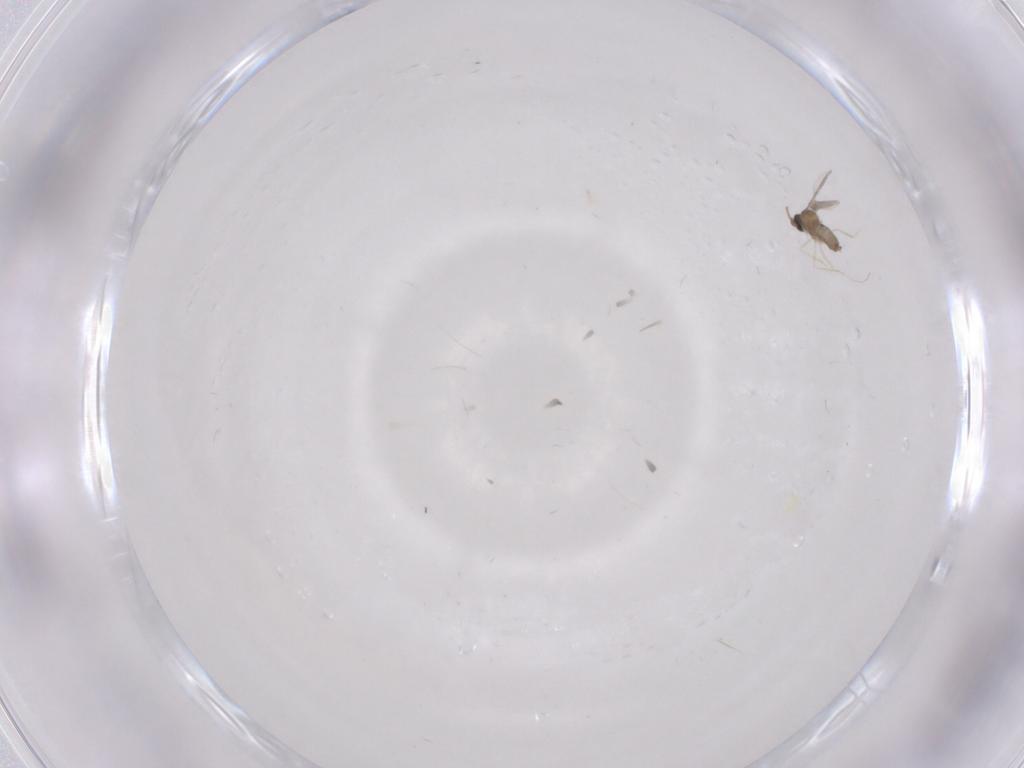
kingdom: Animalia
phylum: Arthropoda
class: Insecta
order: Diptera
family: Cecidomyiidae
